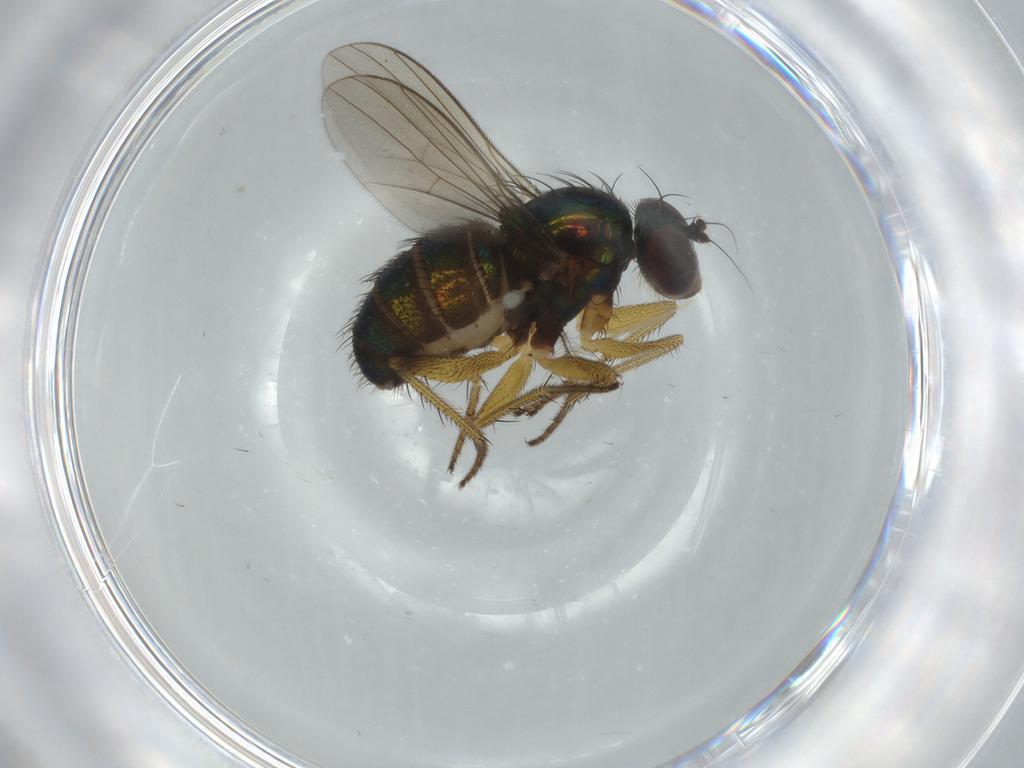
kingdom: Animalia
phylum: Arthropoda
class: Insecta
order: Diptera
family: Dolichopodidae
